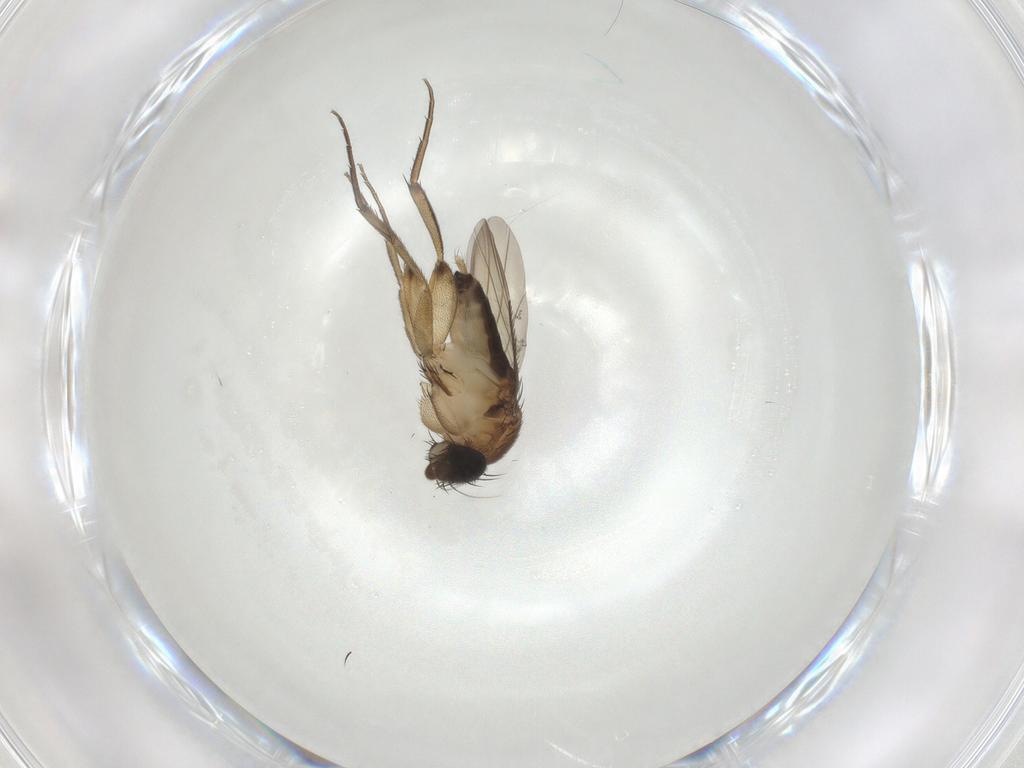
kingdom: Animalia
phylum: Arthropoda
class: Insecta
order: Diptera
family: Phoridae
